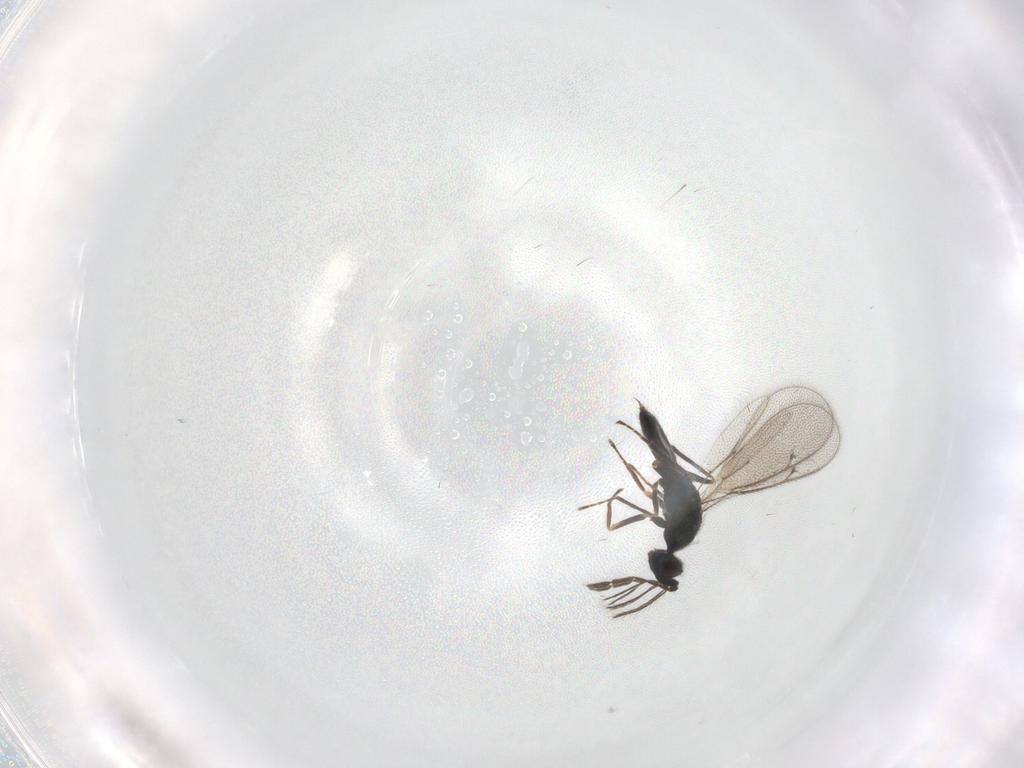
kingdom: Animalia
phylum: Arthropoda
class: Insecta
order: Hymenoptera
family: Eulophidae
